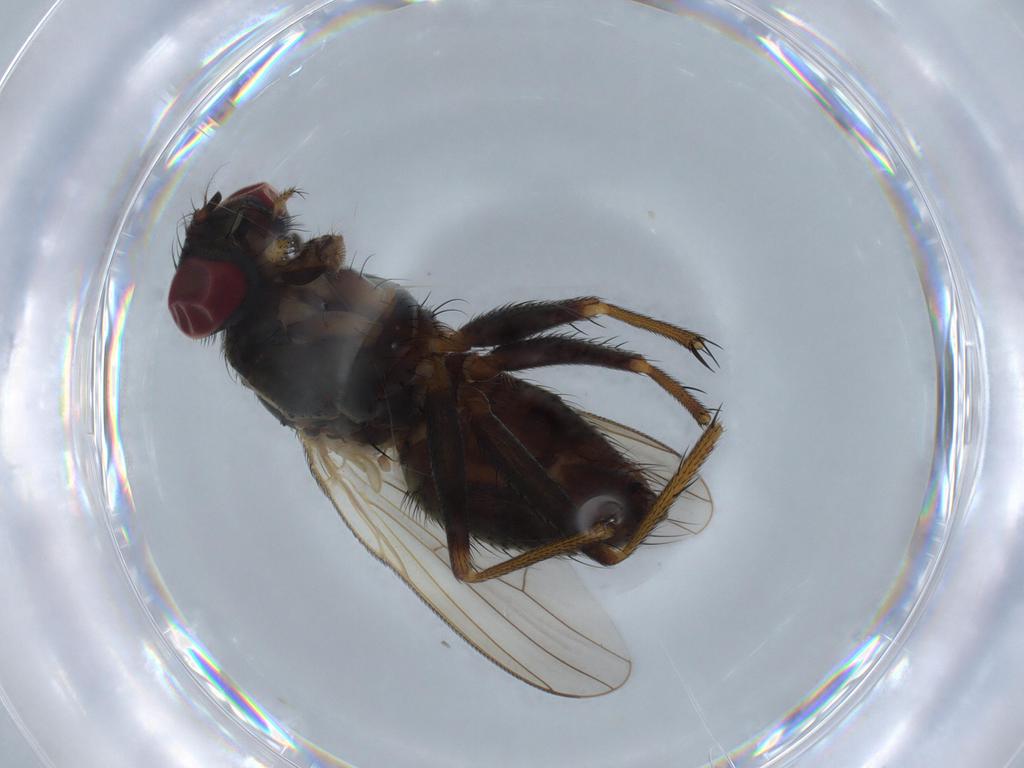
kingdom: Animalia
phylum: Arthropoda
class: Insecta
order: Diptera
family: Phoridae
